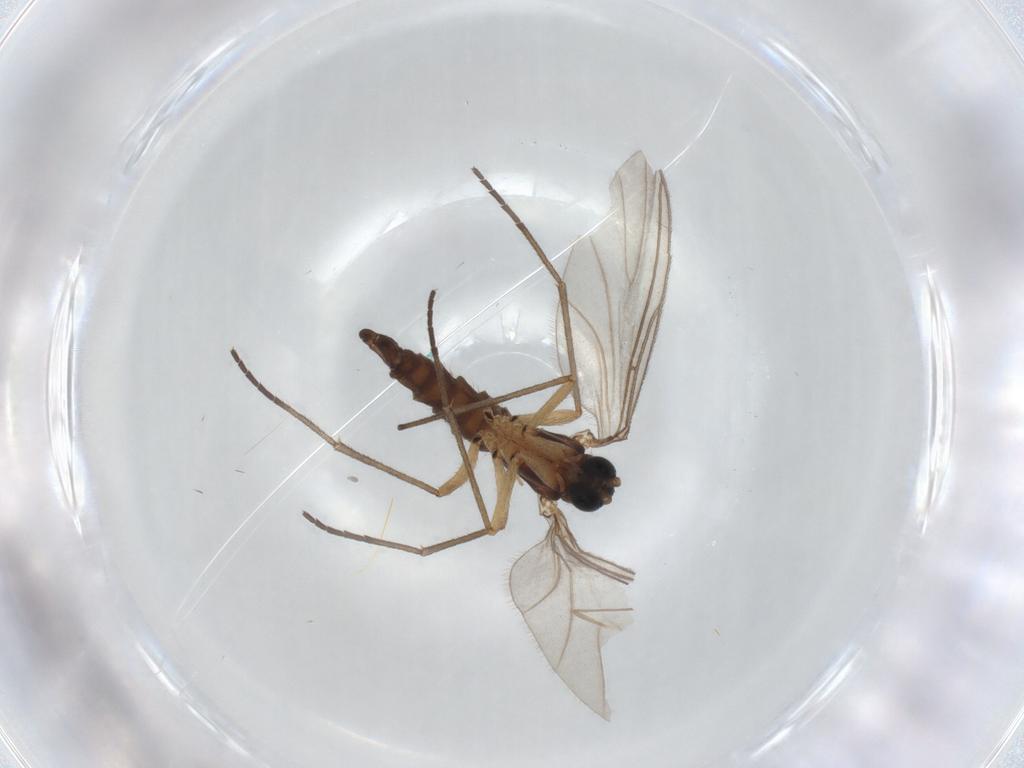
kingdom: Animalia
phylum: Arthropoda
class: Insecta
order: Diptera
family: Sciaridae
